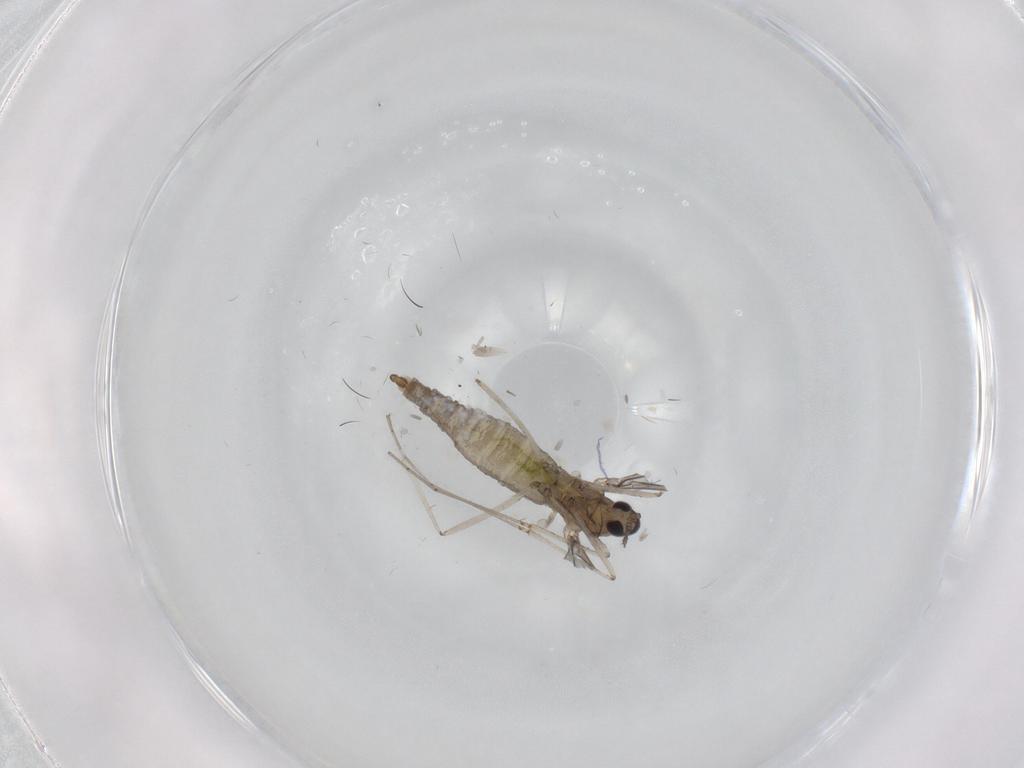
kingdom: Animalia
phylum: Arthropoda
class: Insecta
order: Diptera
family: Cecidomyiidae
